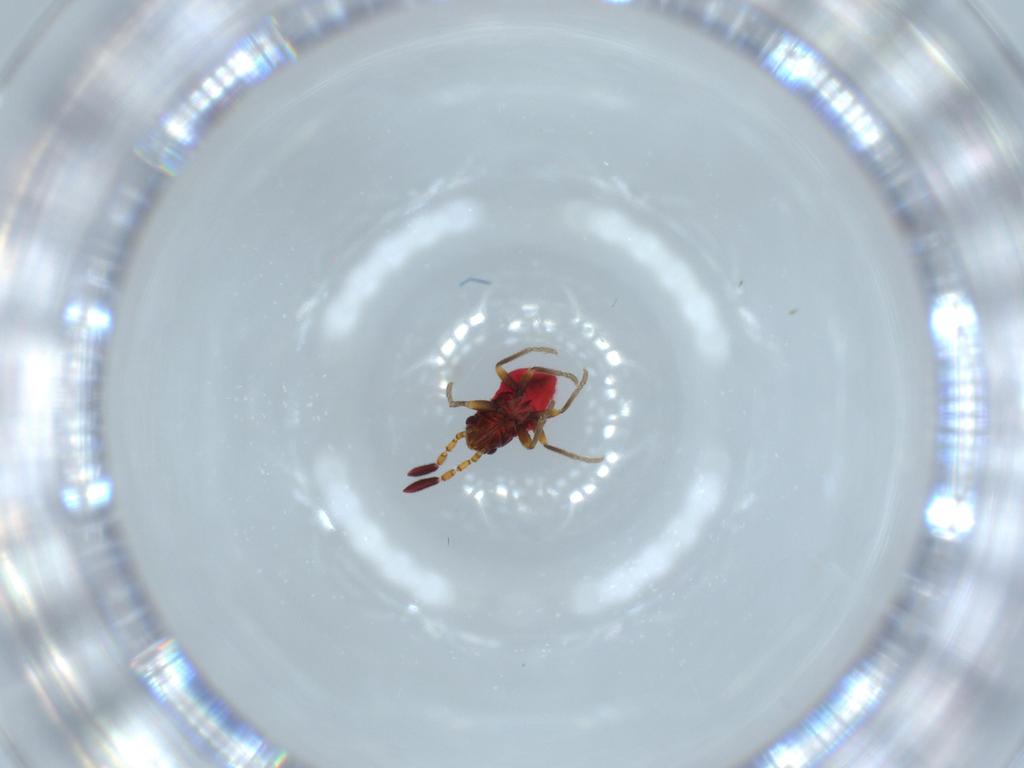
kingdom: Animalia
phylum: Arthropoda
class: Insecta
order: Hemiptera
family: Rhyparochromidae
